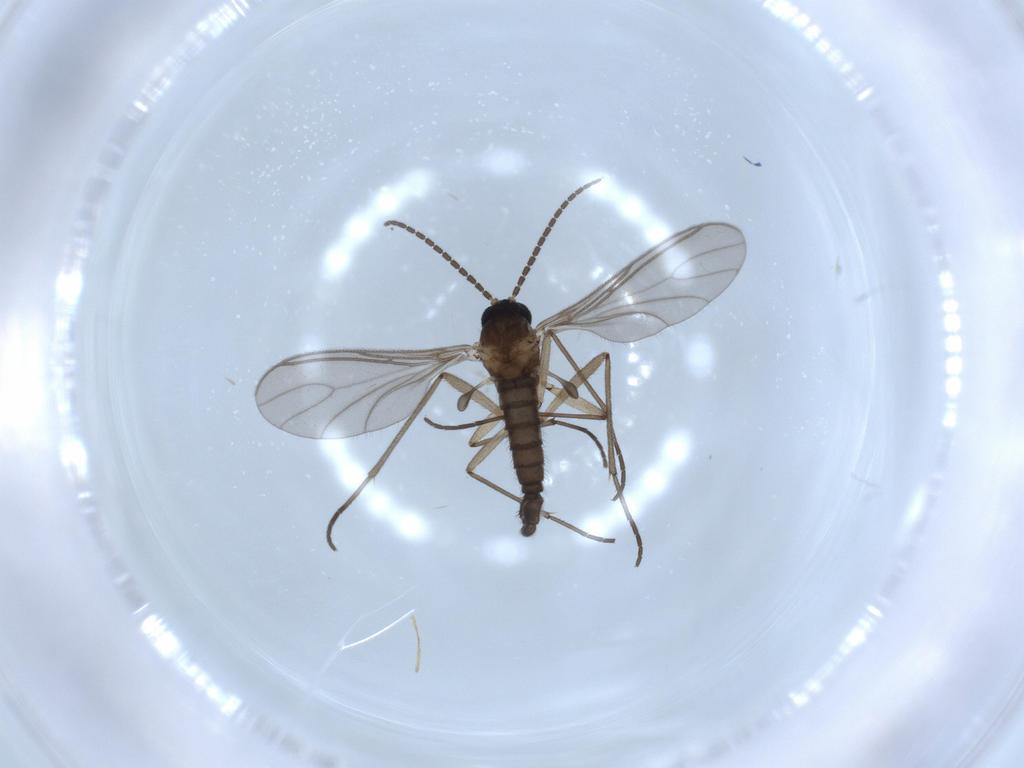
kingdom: Animalia
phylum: Arthropoda
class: Insecta
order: Diptera
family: Sciaridae
